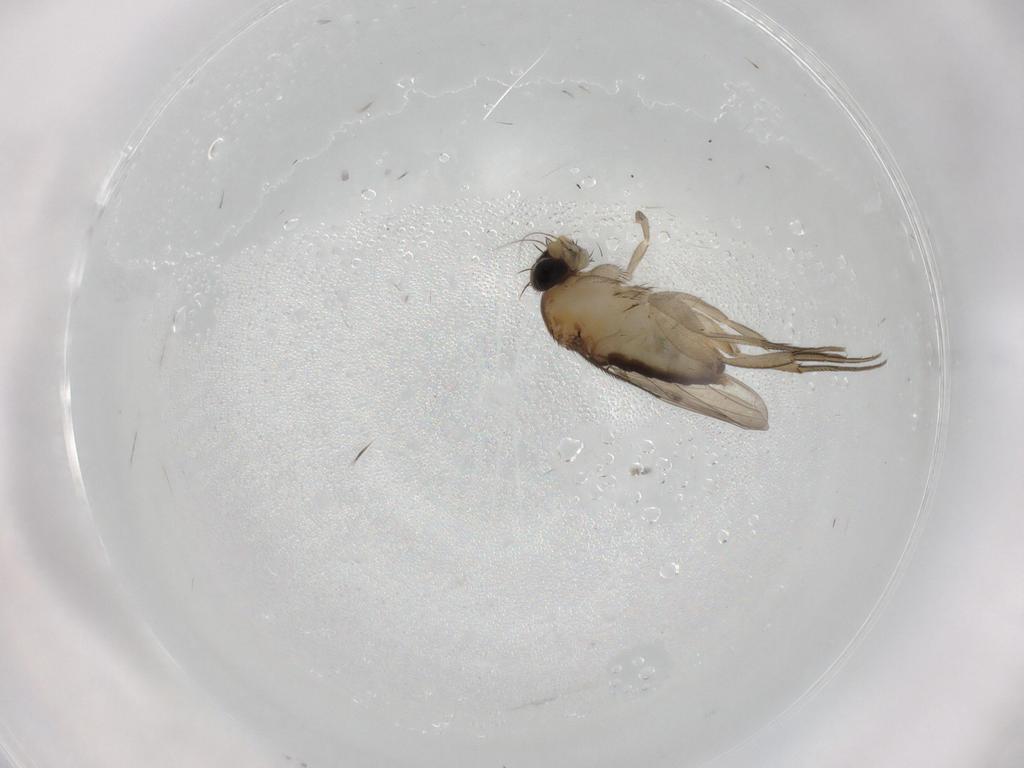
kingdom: Animalia
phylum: Arthropoda
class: Insecta
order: Diptera
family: Phoridae
